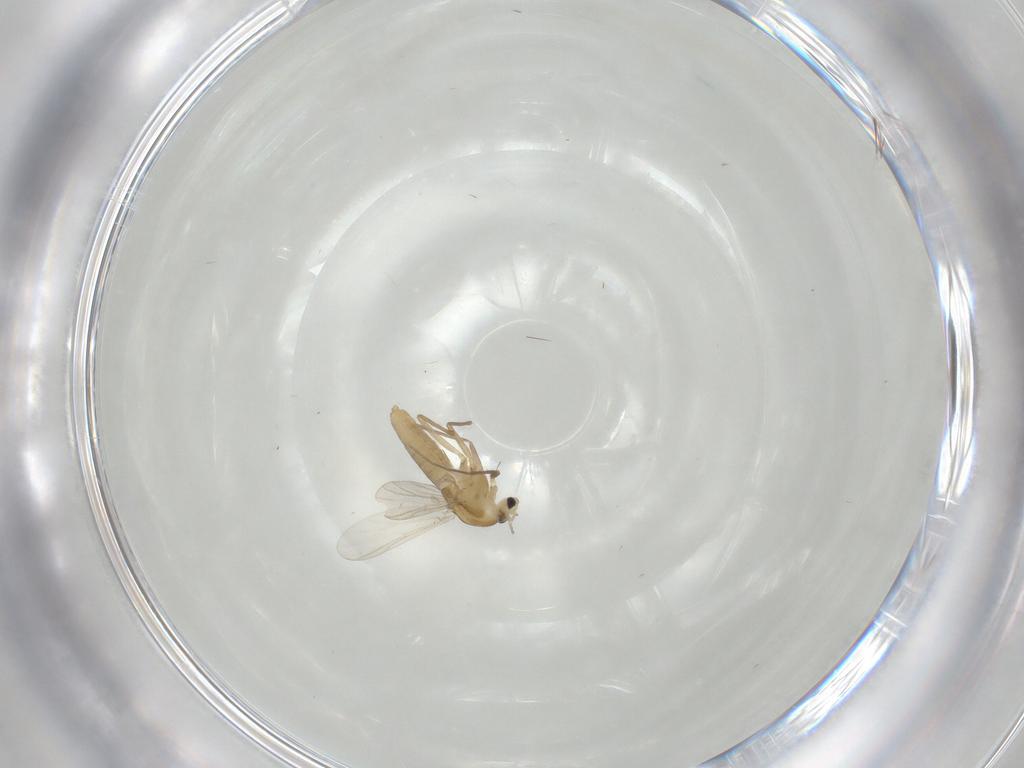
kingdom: Animalia
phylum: Arthropoda
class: Insecta
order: Diptera
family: Chironomidae
